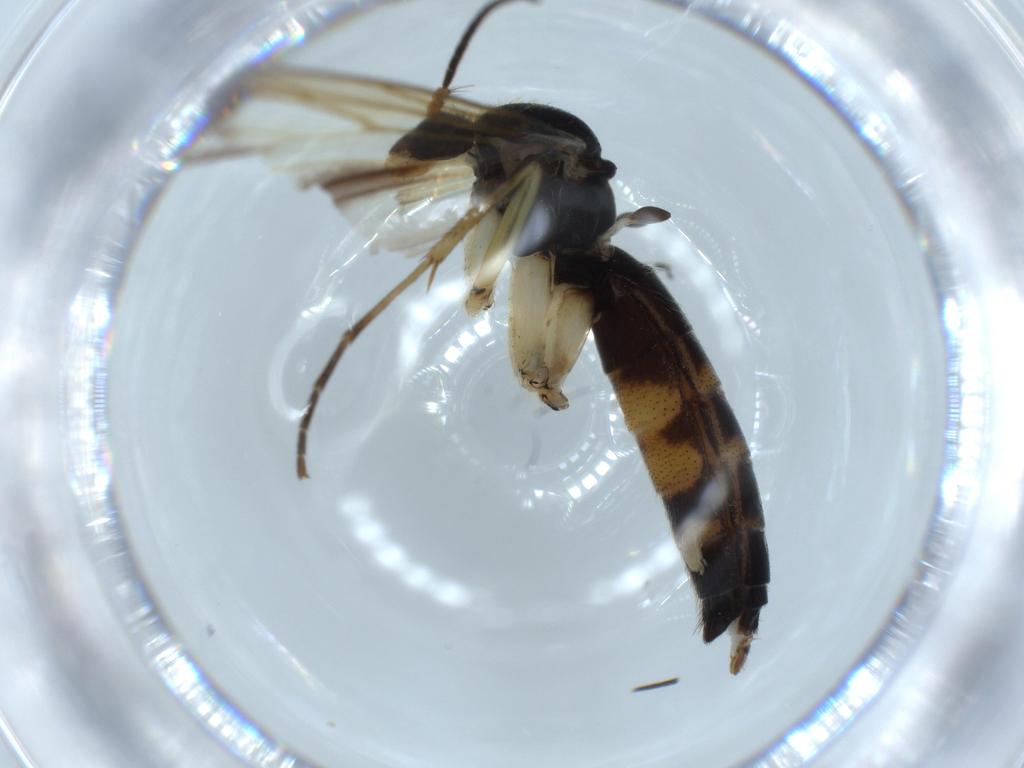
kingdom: Animalia
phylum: Arthropoda
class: Insecta
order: Diptera
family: Mycetophilidae
